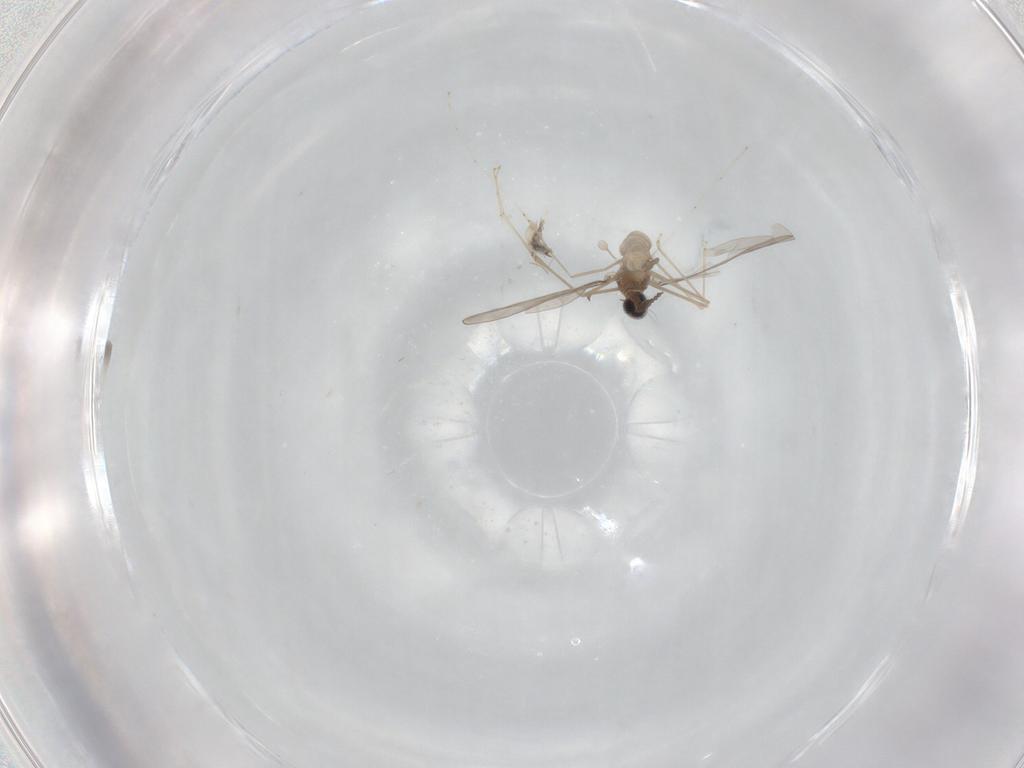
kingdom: Animalia
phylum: Arthropoda
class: Insecta
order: Diptera
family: Cecidomyiidae
